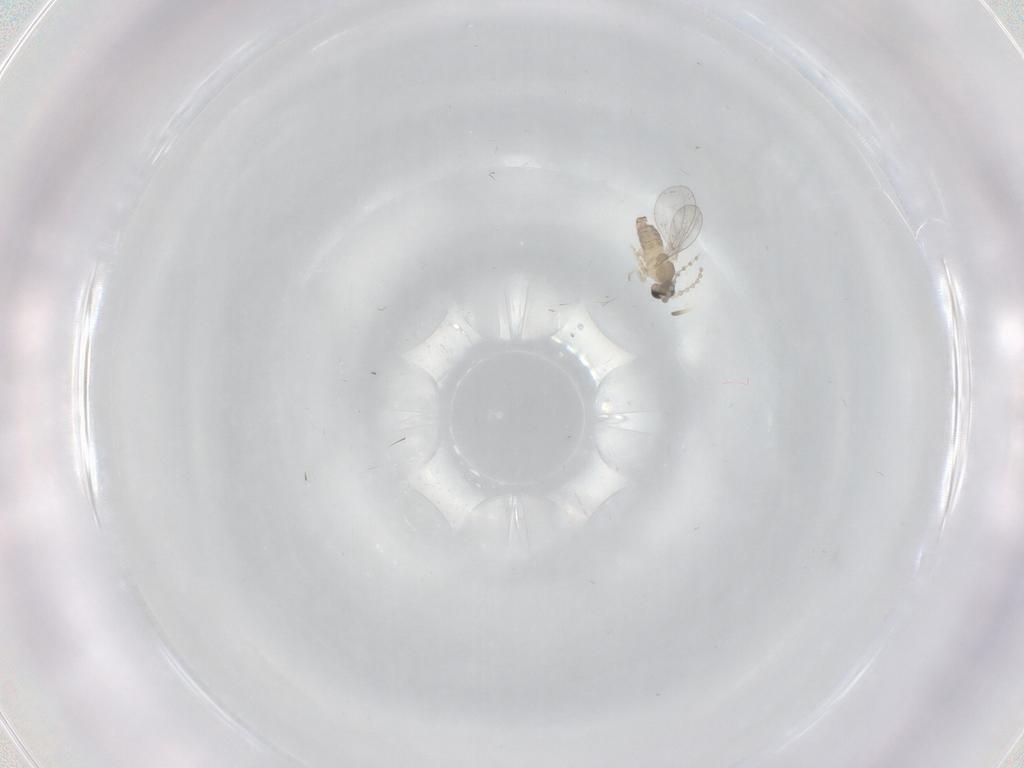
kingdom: Animalia
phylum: Arthropoda
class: Insecta
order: Diptera
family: Cecidomyiidae
